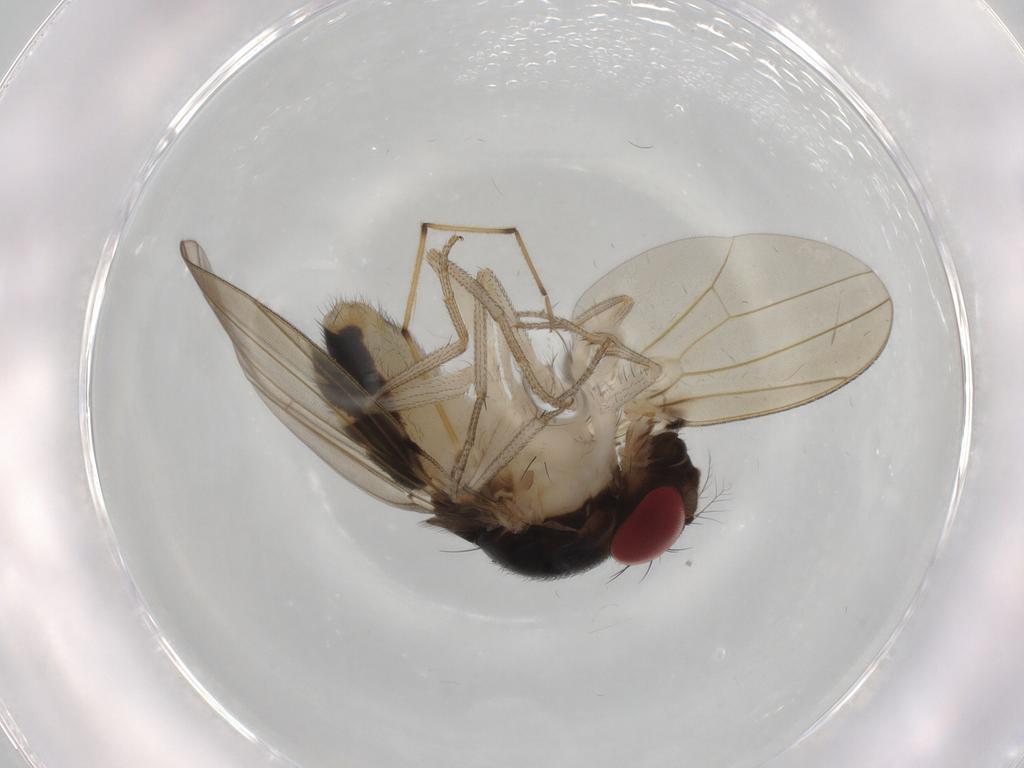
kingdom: Animalia
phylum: Arthropoda
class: Insecta
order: Diptera
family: Drosophilidae
